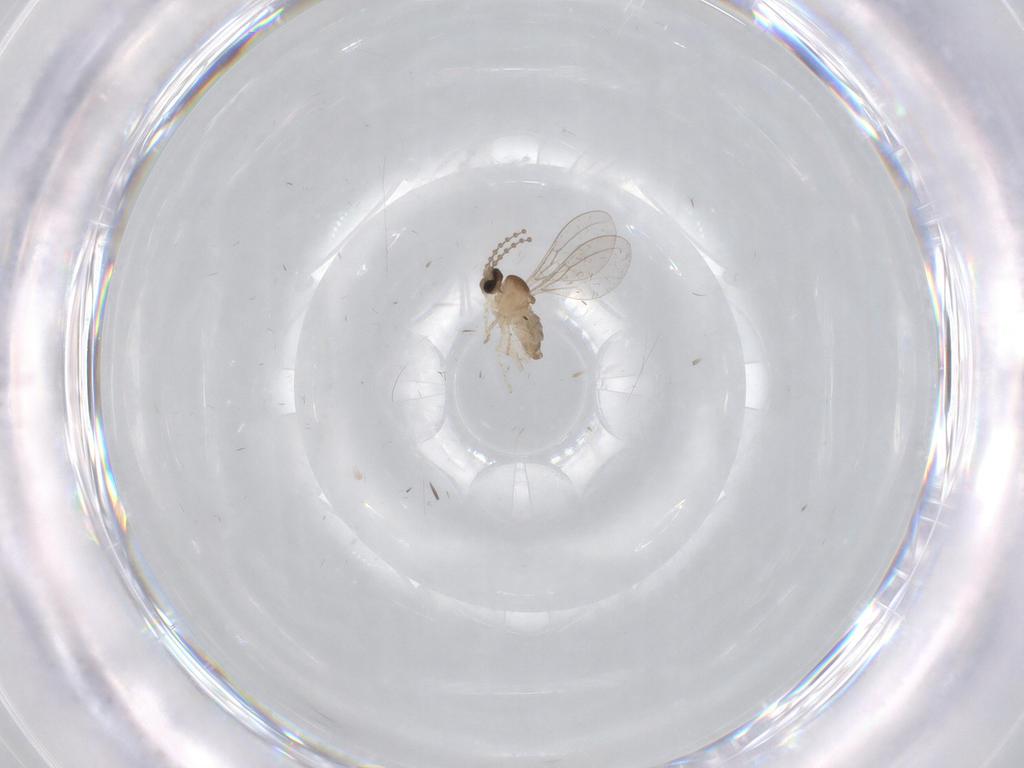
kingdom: Animalia
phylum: Arthropoda
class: Insecta
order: Diptera
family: Cecidomyiidae
